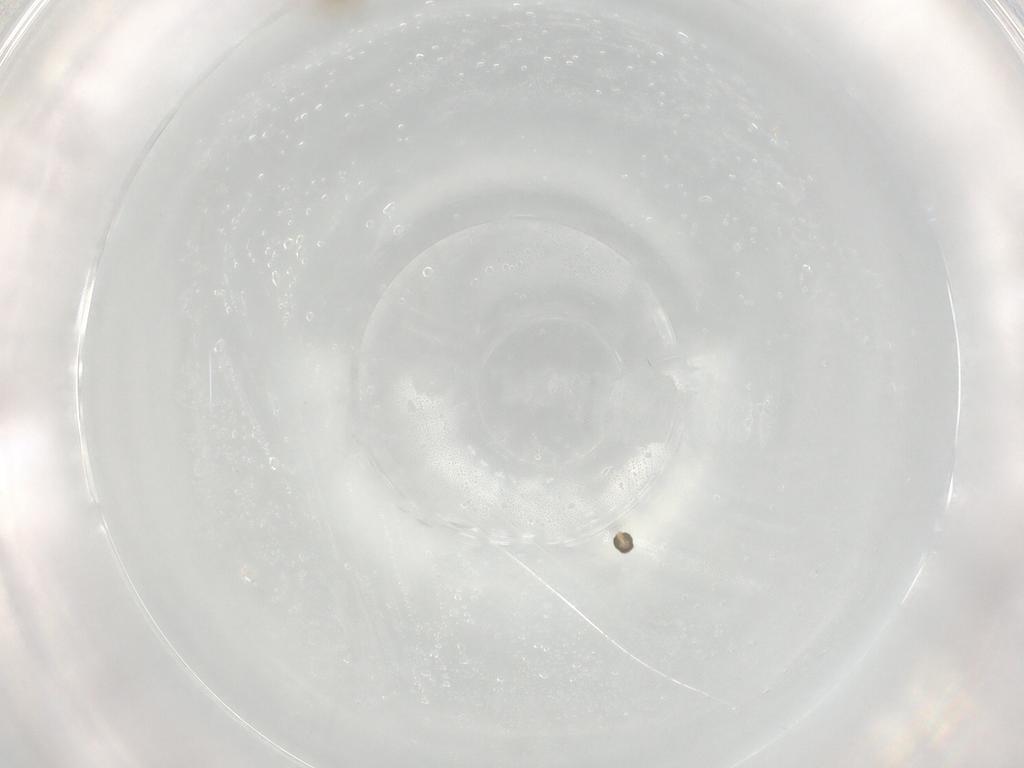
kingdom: Animalia
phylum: Arthropoda
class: Insecta
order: Diptera
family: Cecidomyiidae
